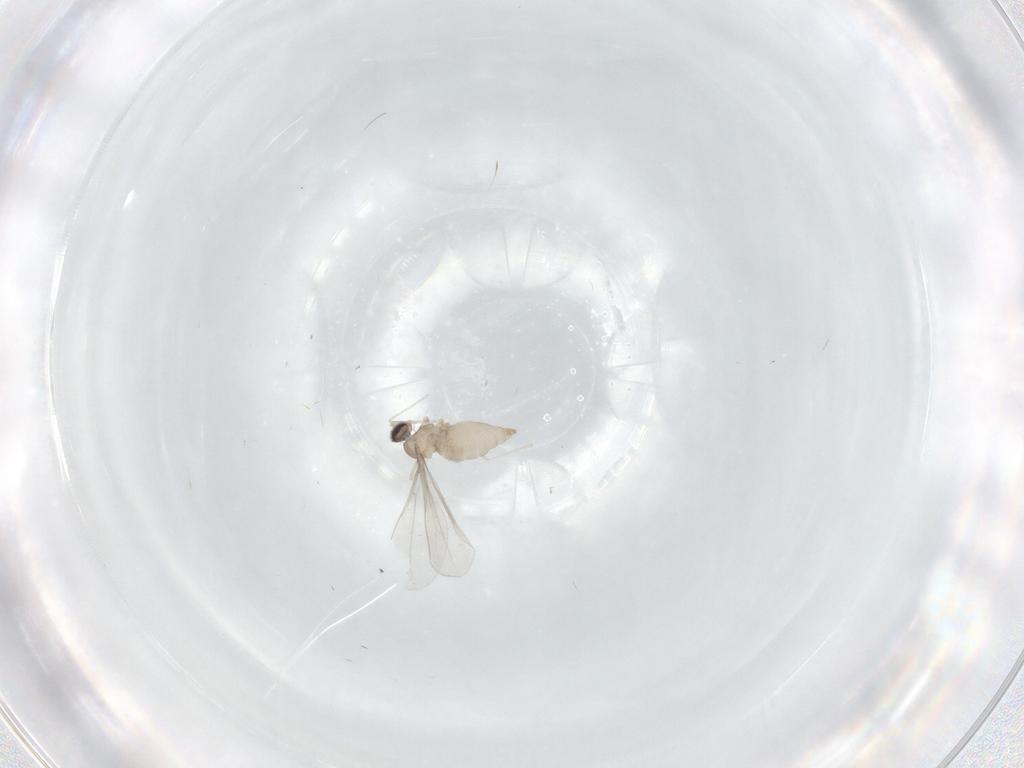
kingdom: Animalia
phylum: Arthropoda
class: Insecta
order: Diptera
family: Cecidomyiidae
